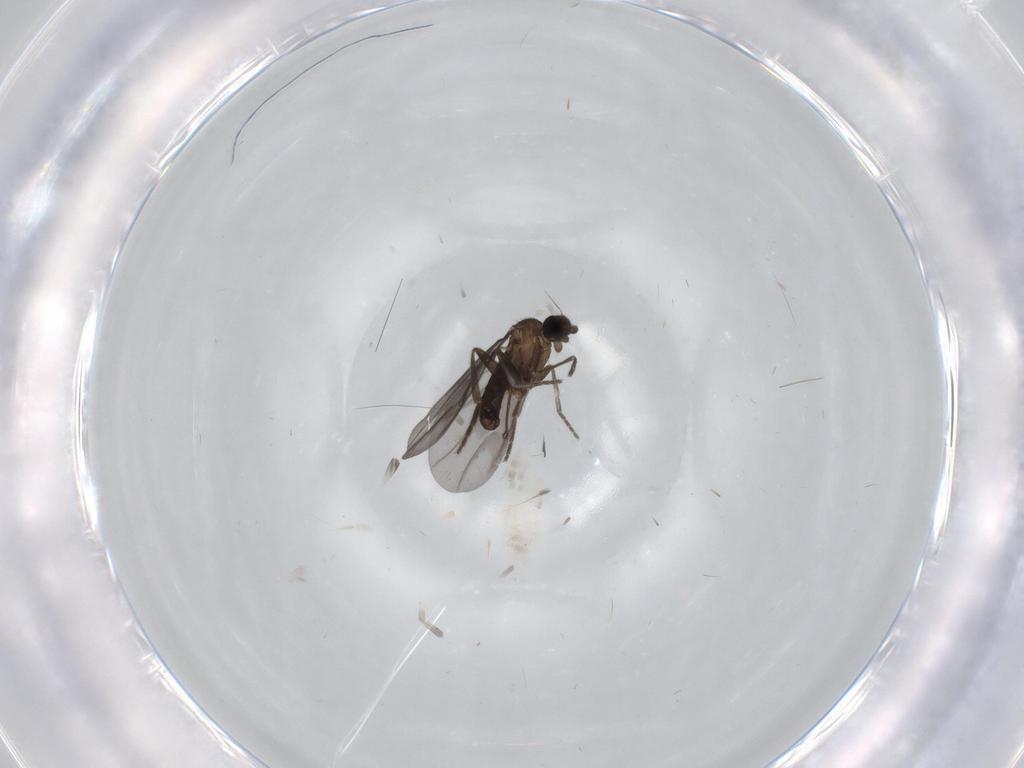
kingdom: Animalia
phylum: Arthropoda
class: Insecta
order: Diptera
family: Phoridae
